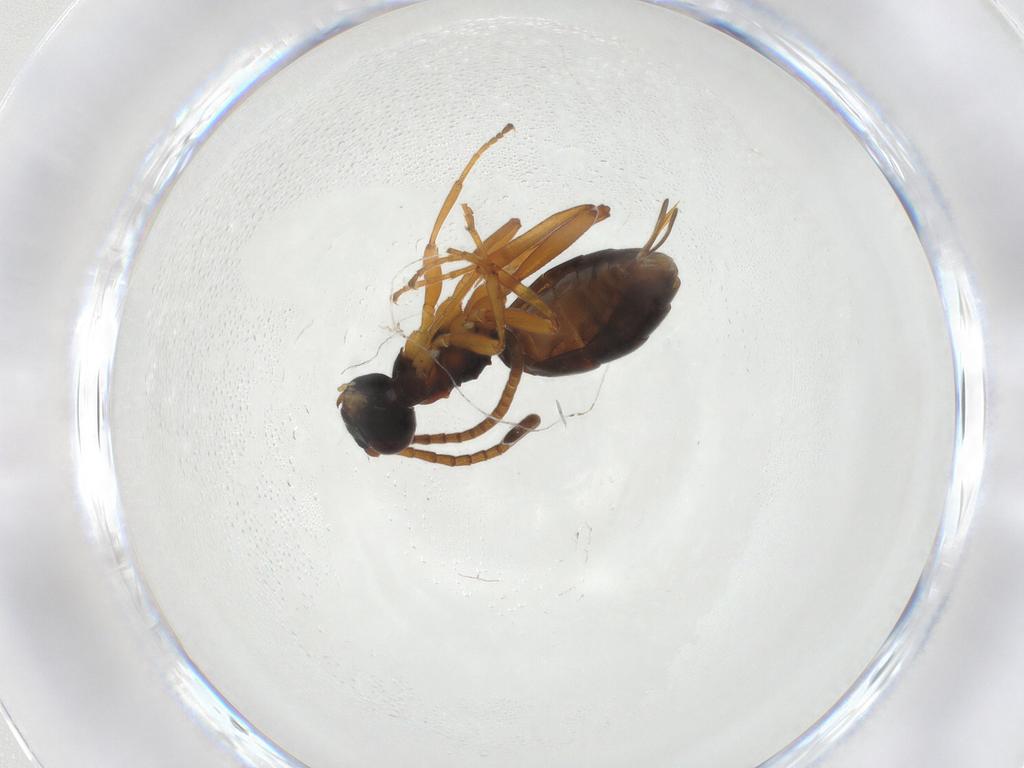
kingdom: Animalia
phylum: Arthropoda
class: Insecta
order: Hymenoptera
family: Ichneumonidae
